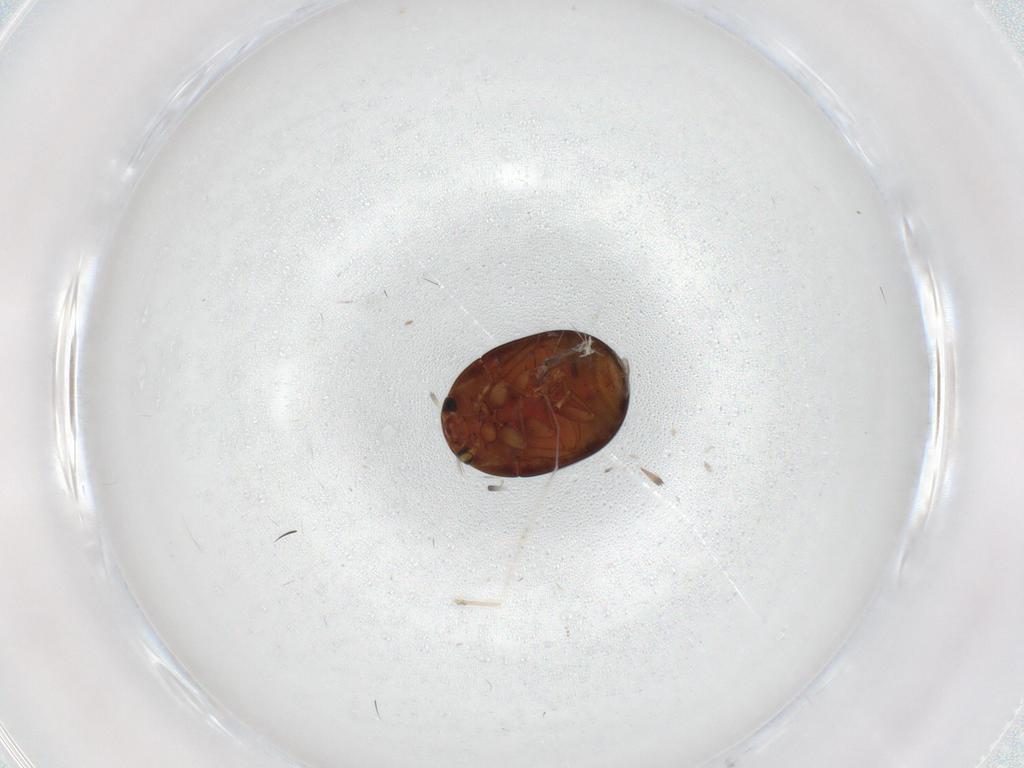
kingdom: Animalia
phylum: Arthropoda
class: Insecta
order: Coleoptera
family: Phalacridae
